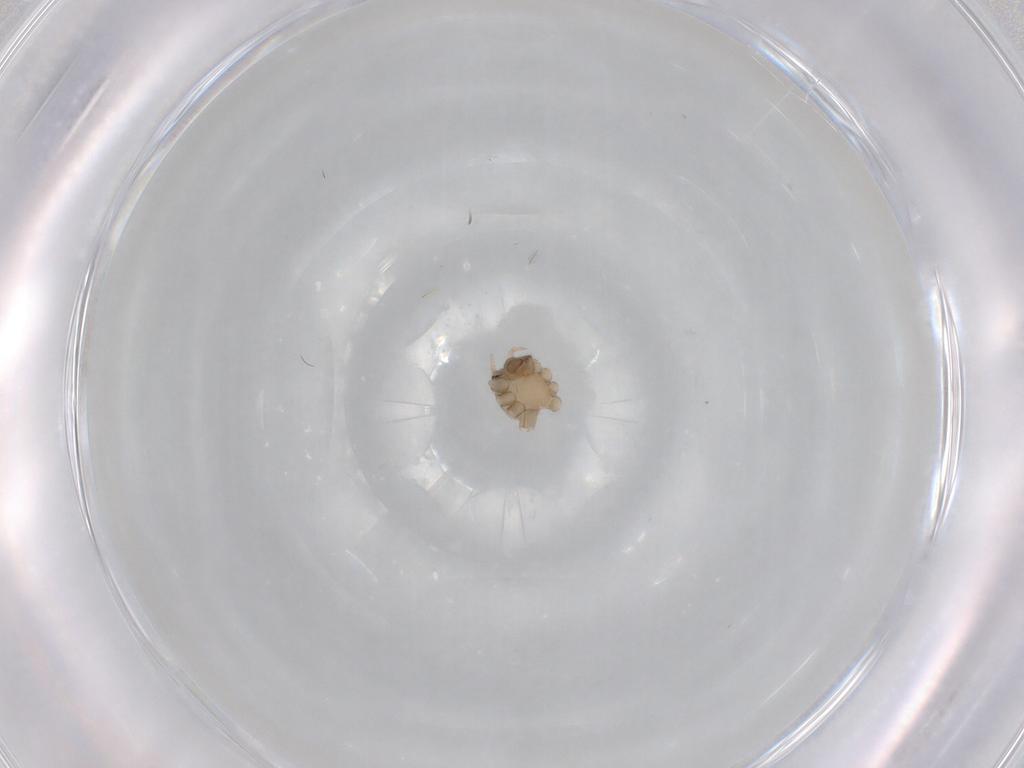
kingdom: Animalia
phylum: Arthropoda
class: Arachnida
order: Araneae
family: Pholcidae
